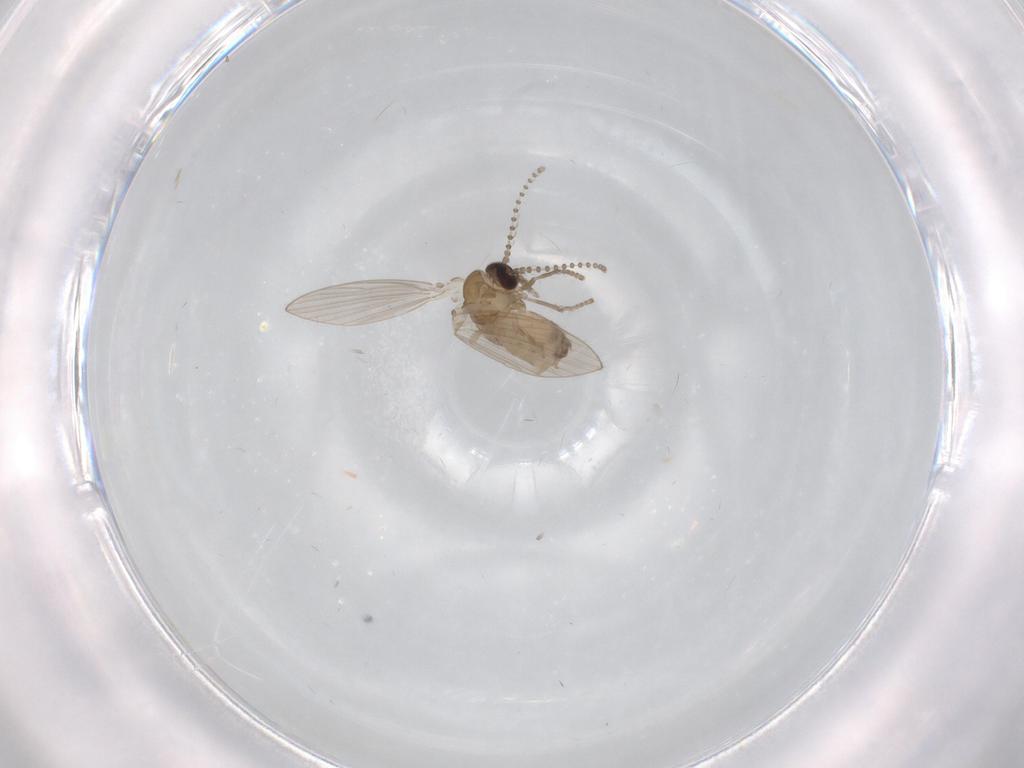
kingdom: Animalia
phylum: Arthropoda
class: Insecta
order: Diptera
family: Psychodidae
